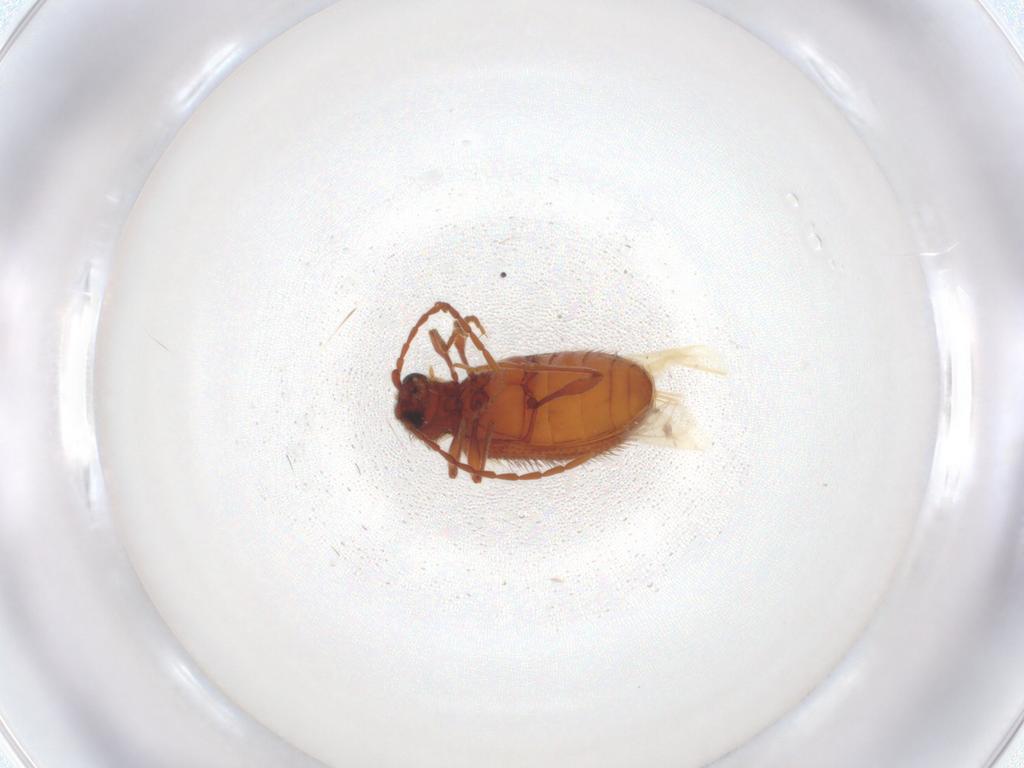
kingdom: Animalia
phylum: Arthropoda
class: Insecta
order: Coleoptera
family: Ptinidae
